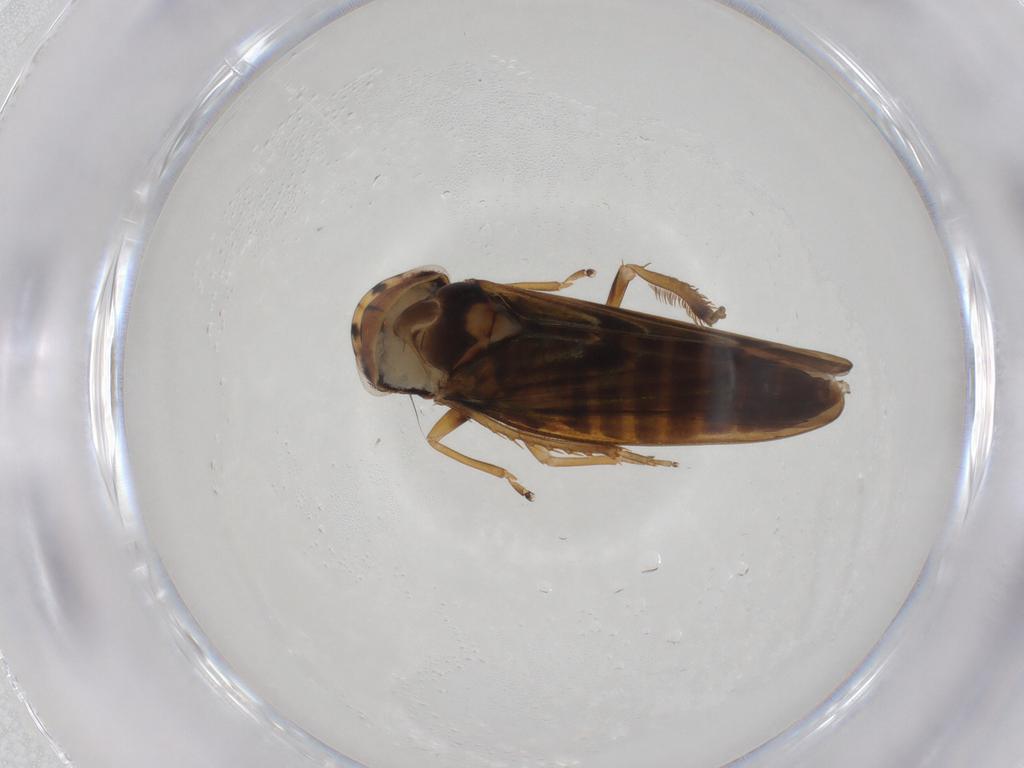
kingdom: Animalia
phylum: Arthropoda
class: Insecta
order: Hemiptera
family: Cicadellidae
